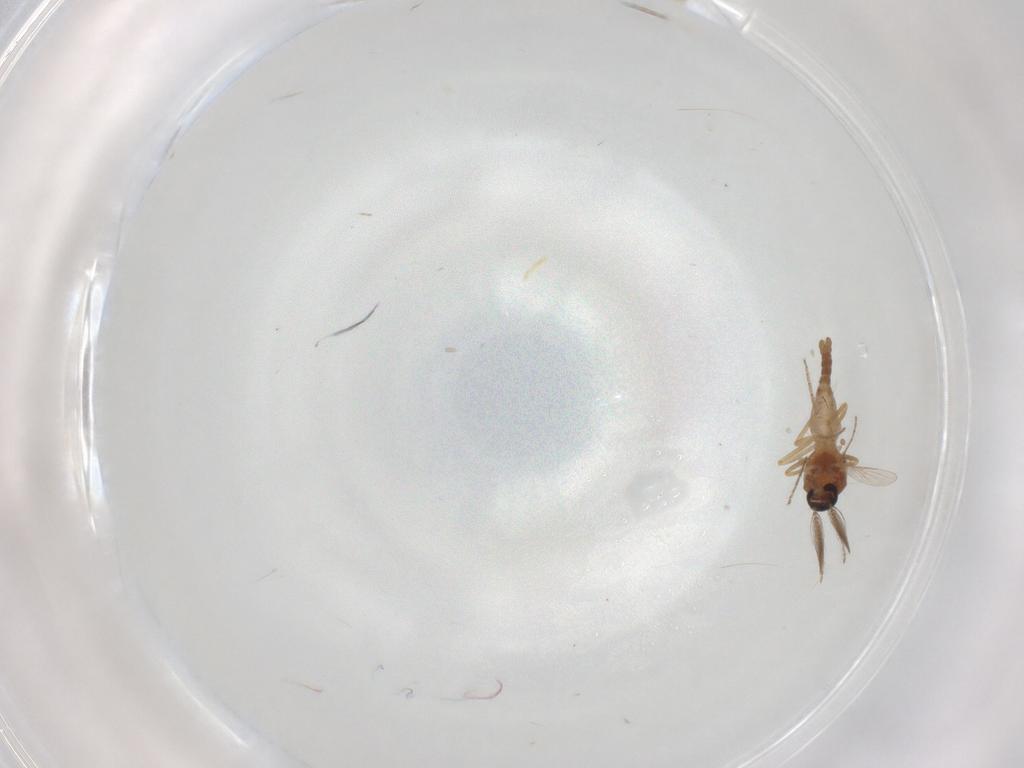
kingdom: Animalia
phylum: Arthropoda
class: Insecta
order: Diptera
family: Ceratopogonidae
